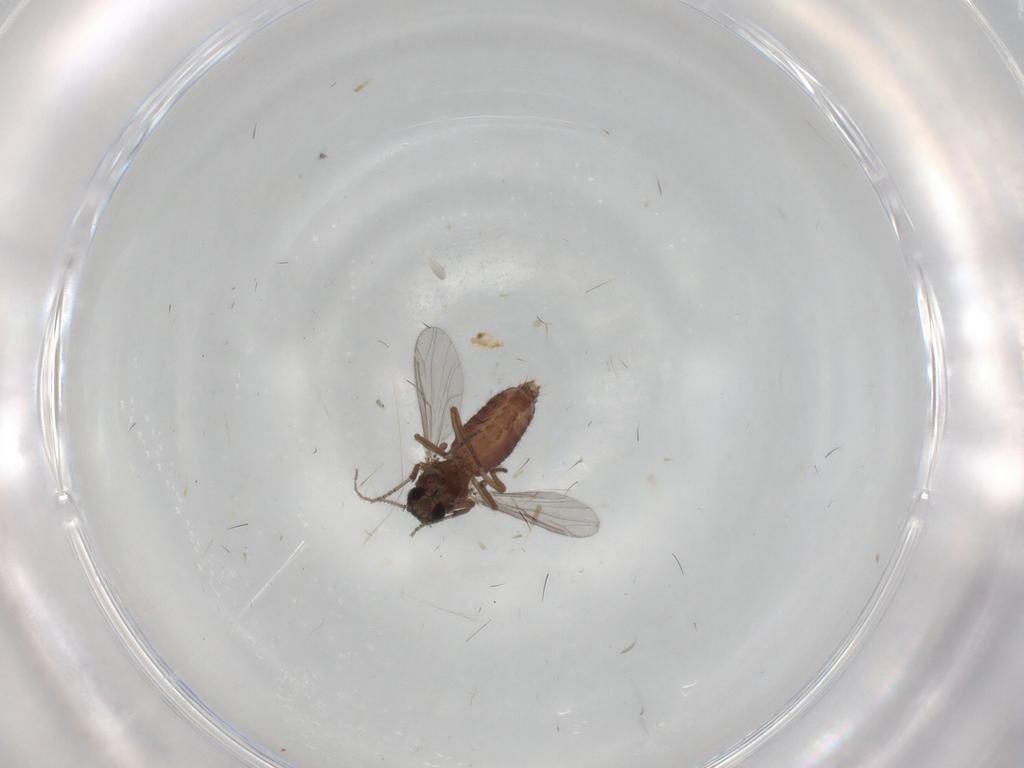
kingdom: Animalia
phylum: Arthropoda
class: Insecta
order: Diptera
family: Ceratopogonidae
